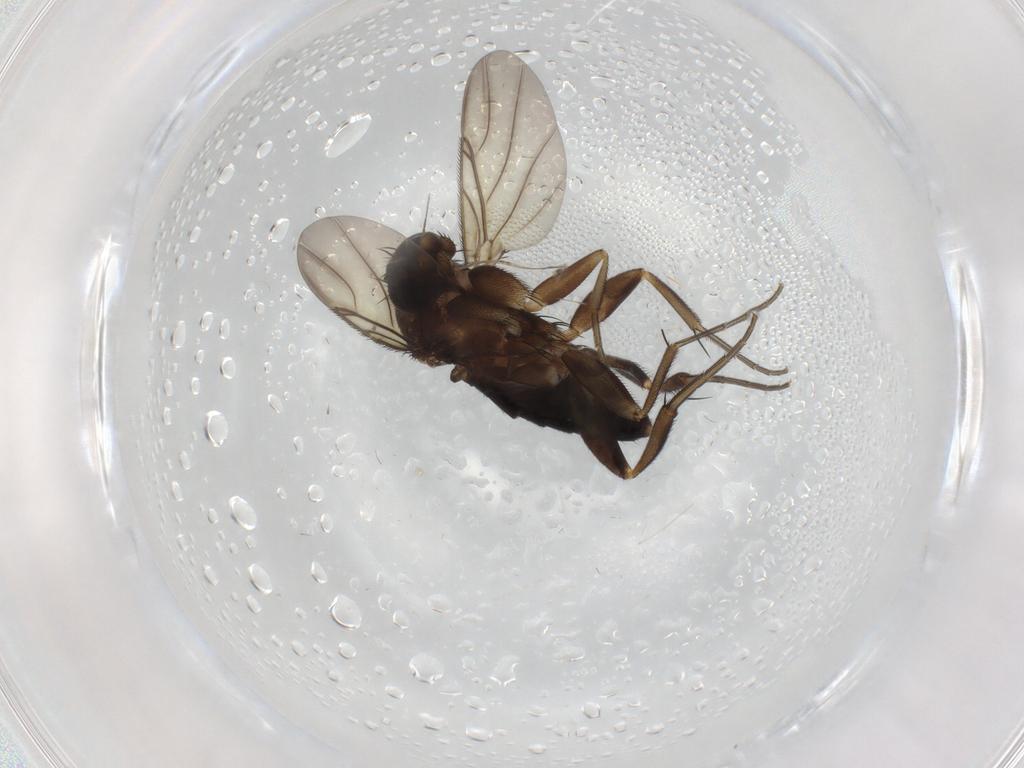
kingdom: Animalia
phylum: Arthropoda
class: Insecta
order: Diptera
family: Phoridae
